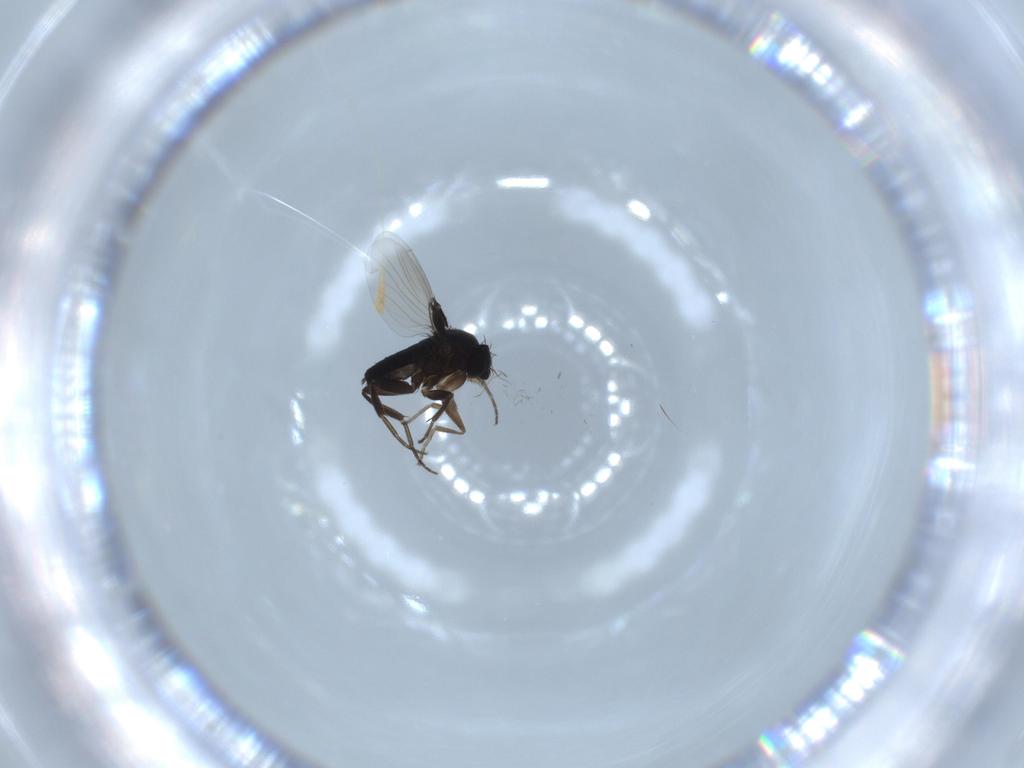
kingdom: Animalia
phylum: Arthropoda
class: Insecta
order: Diptera
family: Phoridae
